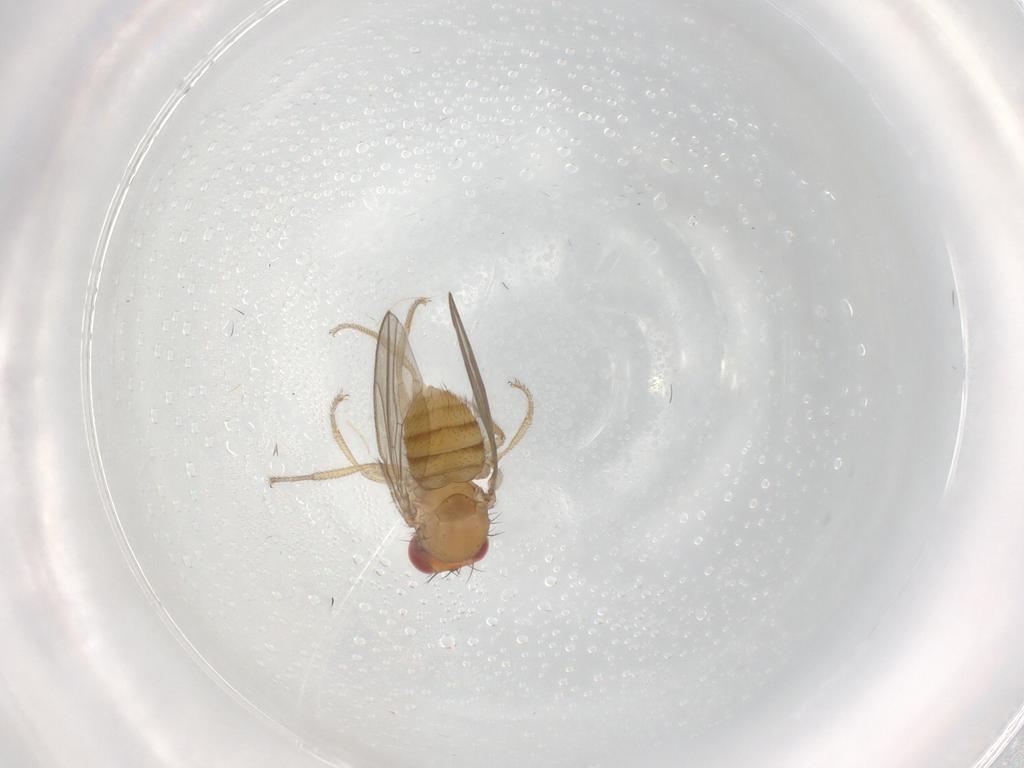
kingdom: Animalia
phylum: Arthropoda
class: Insecta
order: Diptera
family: Drosophilidae
